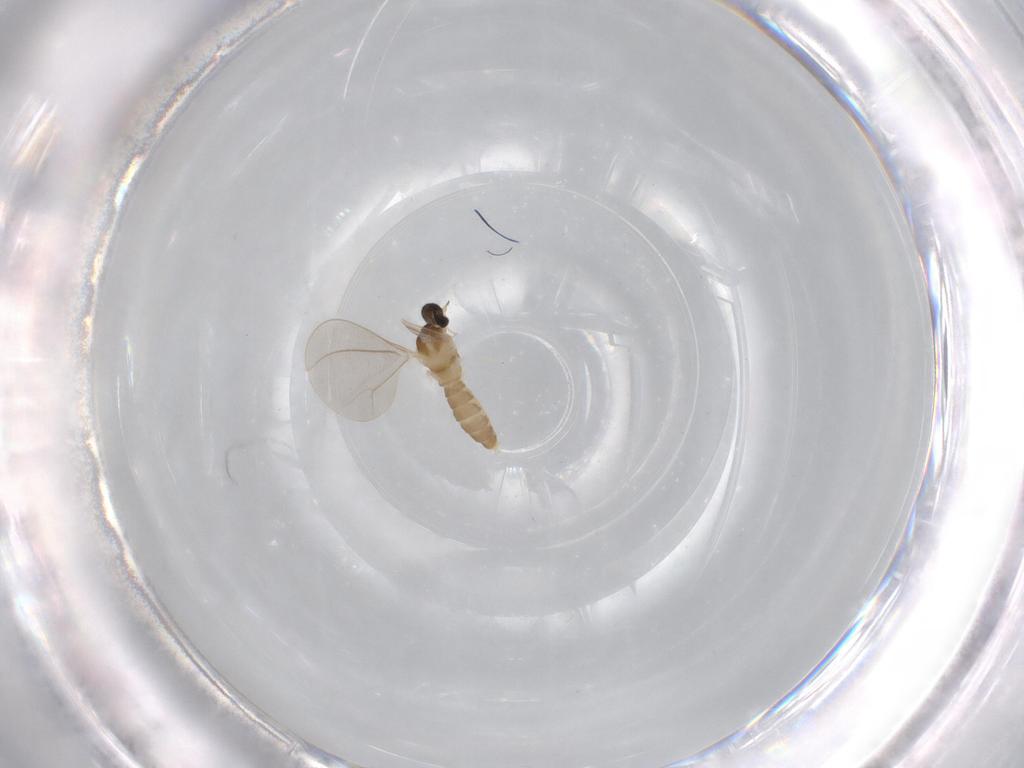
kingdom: Animalia
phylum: Arthropoda
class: Insecta
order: Diptera
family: Cecidomyiidae
